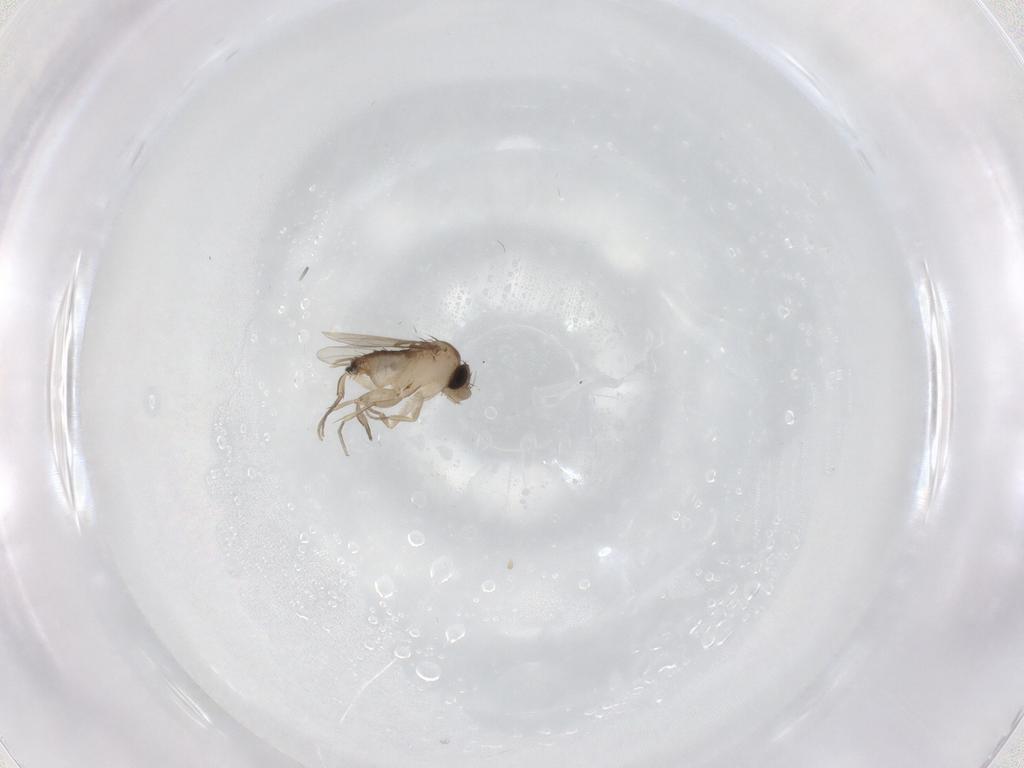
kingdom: Animalia
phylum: Arthropoda
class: Insecta
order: Diptera
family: Phoridae
